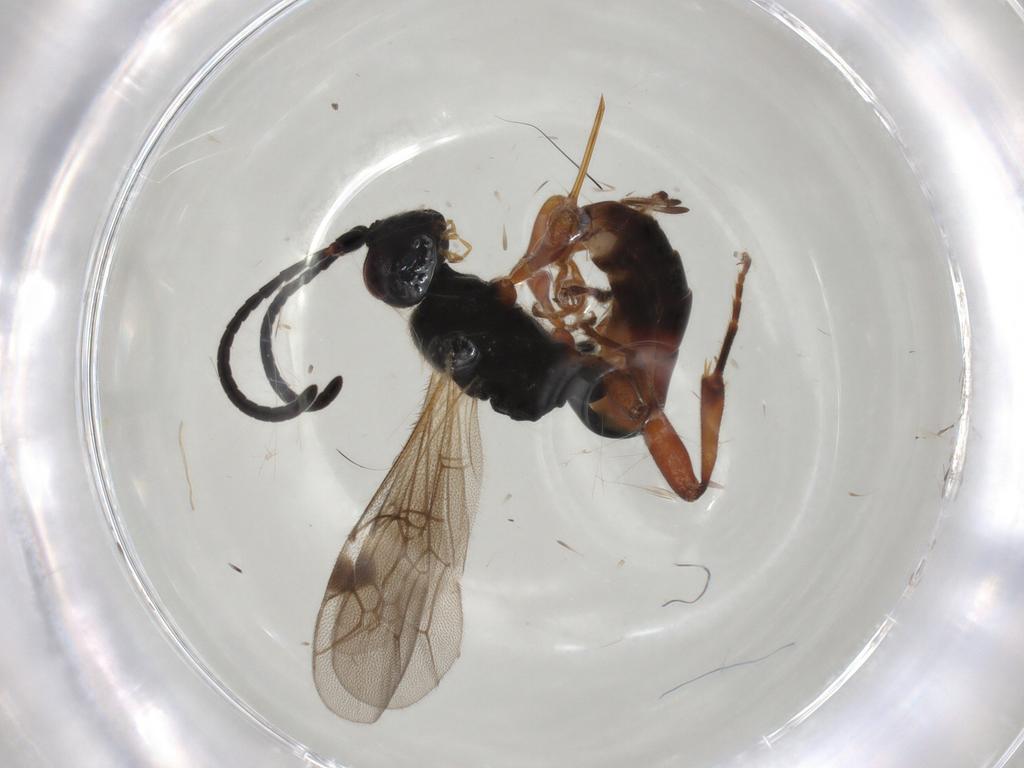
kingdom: Animalia
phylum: Arthropoda
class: Insecta
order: Hymenoptera
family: Ichneumonidae
